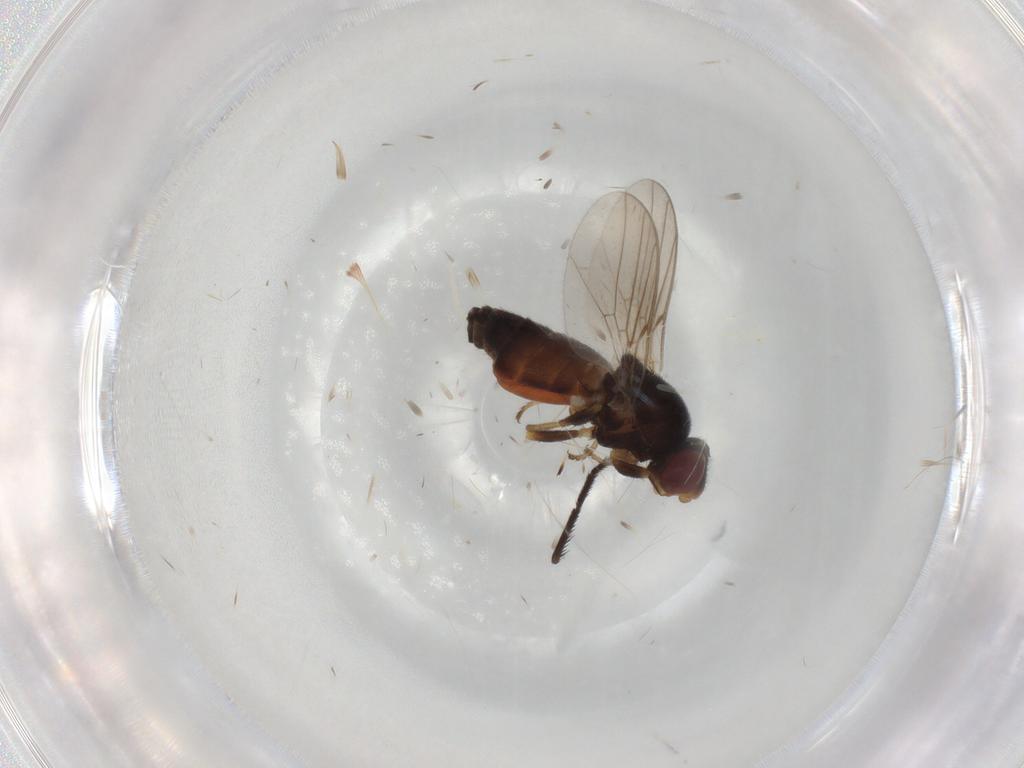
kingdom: Animalia
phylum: Arthropoda
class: Insecta
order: Diptera
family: Chloropidae
